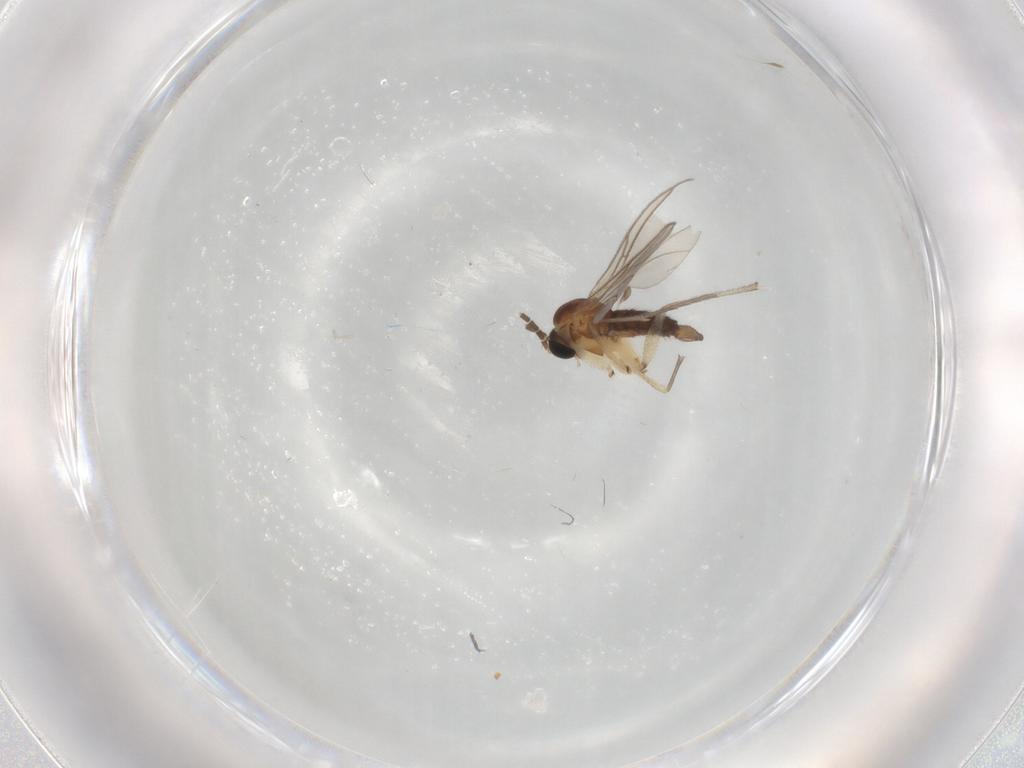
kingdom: Animalia
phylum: Arthropoda
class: Insecta
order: Diptera
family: Sciaridae
